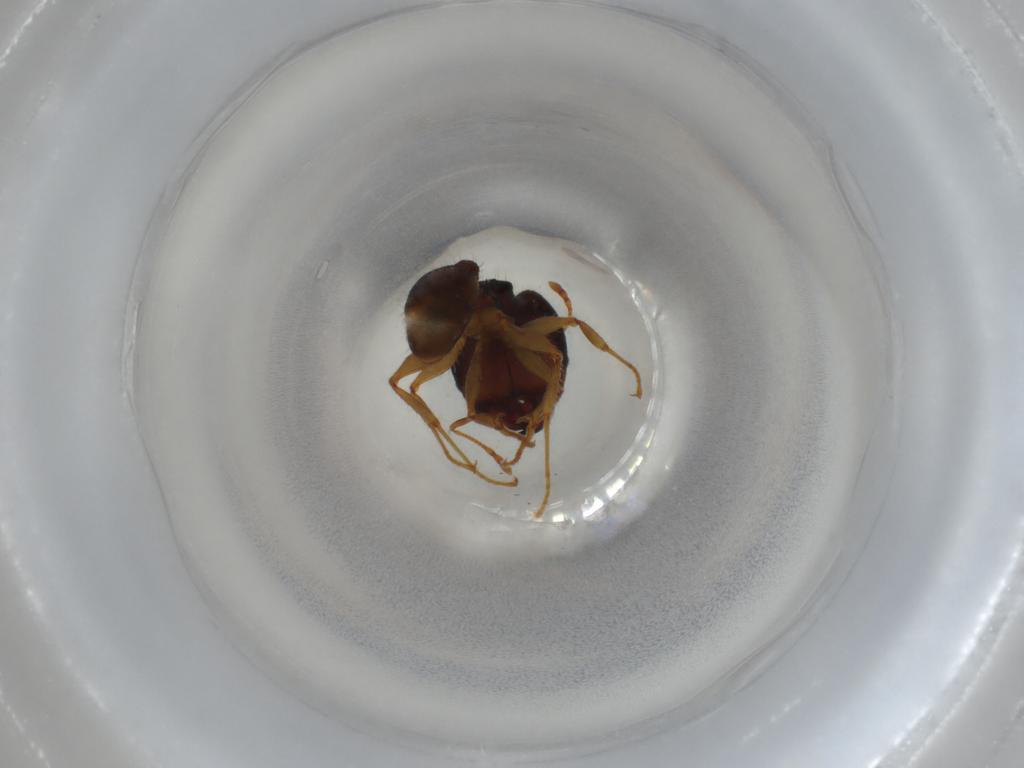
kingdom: Animalia
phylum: Arthropoda
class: Insecta
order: Hymenoptera
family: Formicidae
